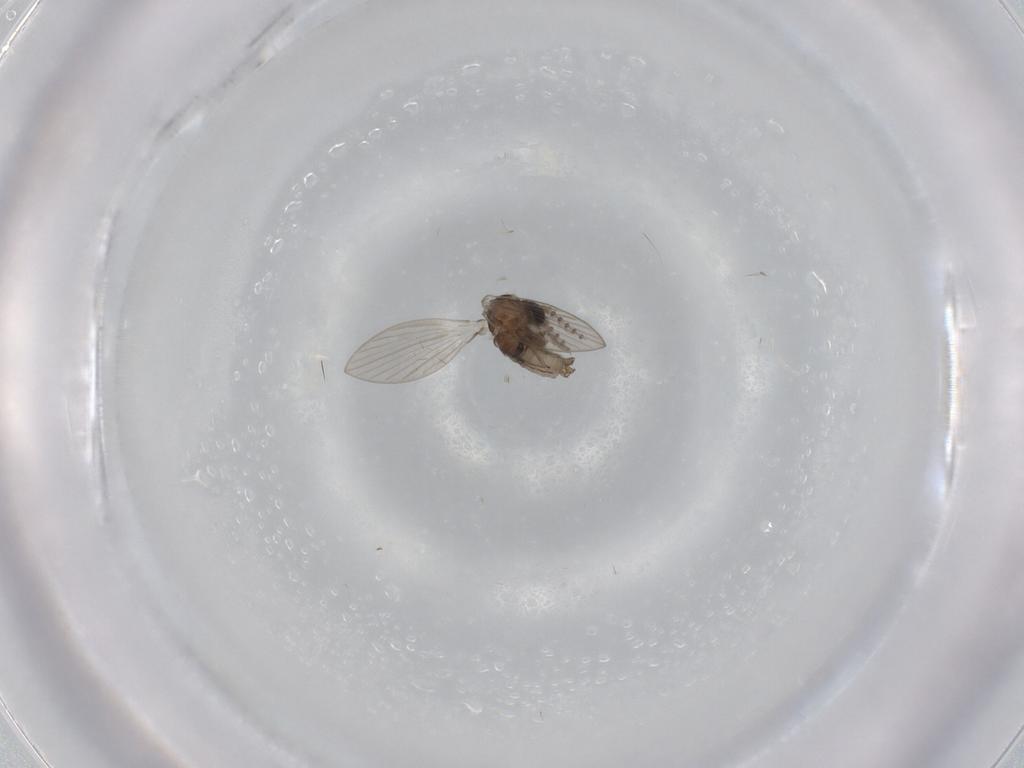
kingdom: Animalia
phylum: Arthropoda
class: Insecta
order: Diptera
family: Psychodidae
